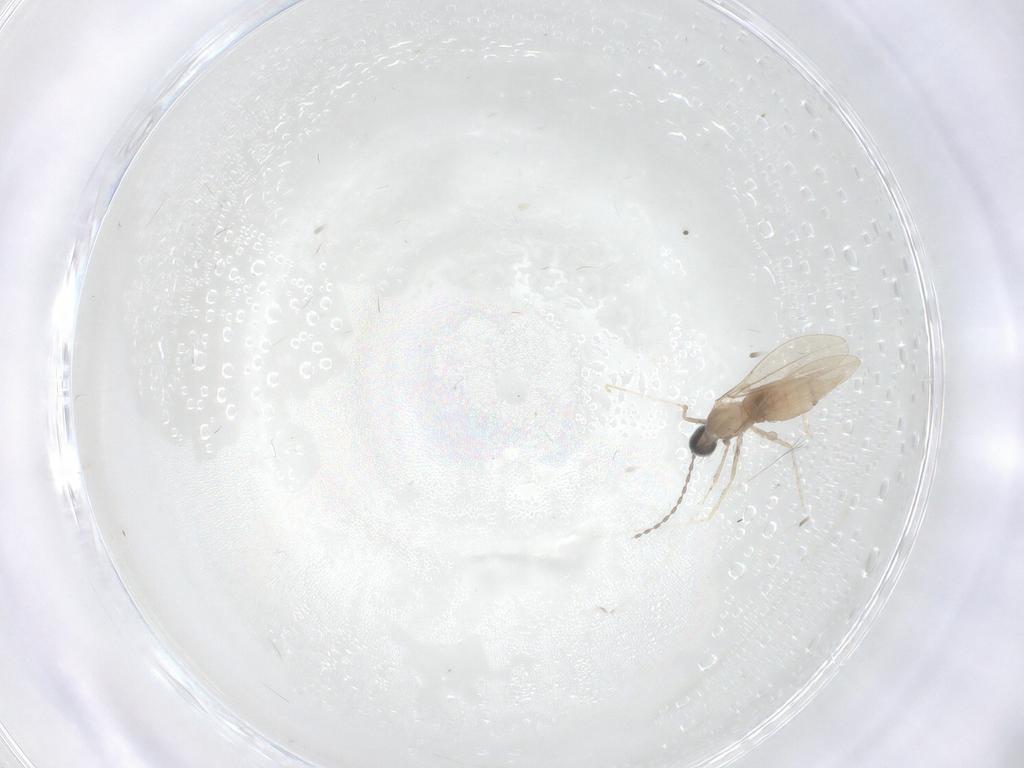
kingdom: Animalia
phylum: Arthropoda
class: Insecta
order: Diptera
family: Cecidomyiidae
